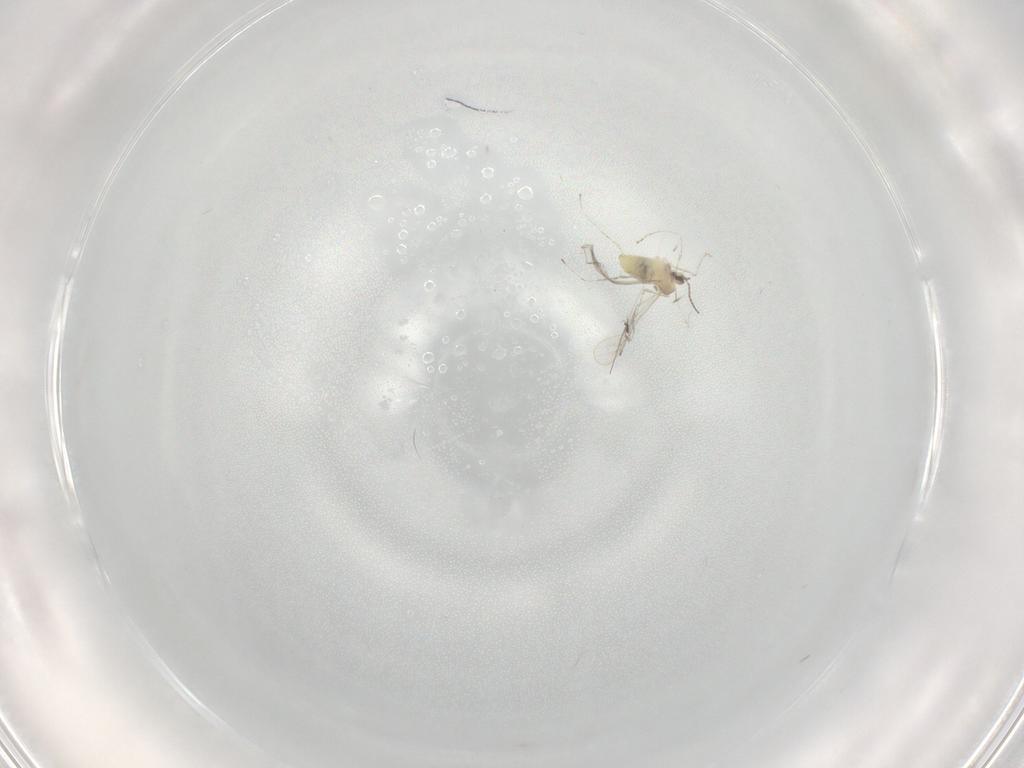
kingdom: Animalia
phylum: Arthropoda
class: Insecta
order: Diptera
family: Cecidomyiidae
